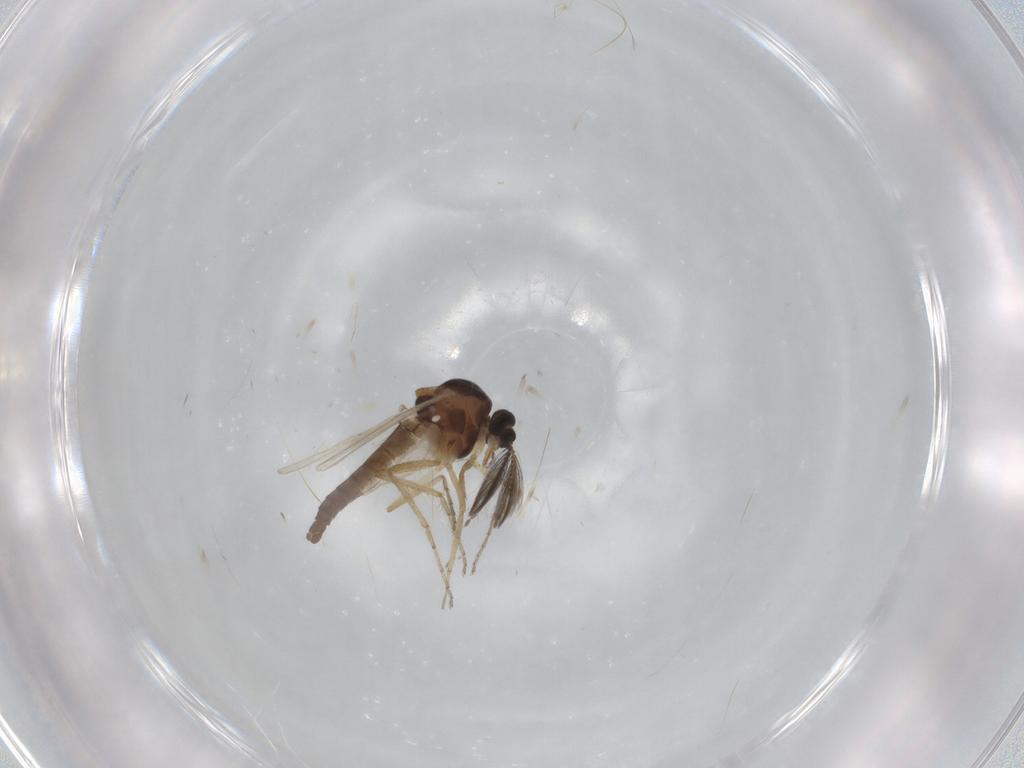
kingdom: Animalia
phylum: Arthropoda
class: Insecta
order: Diptera
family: Ceratopogonidae
